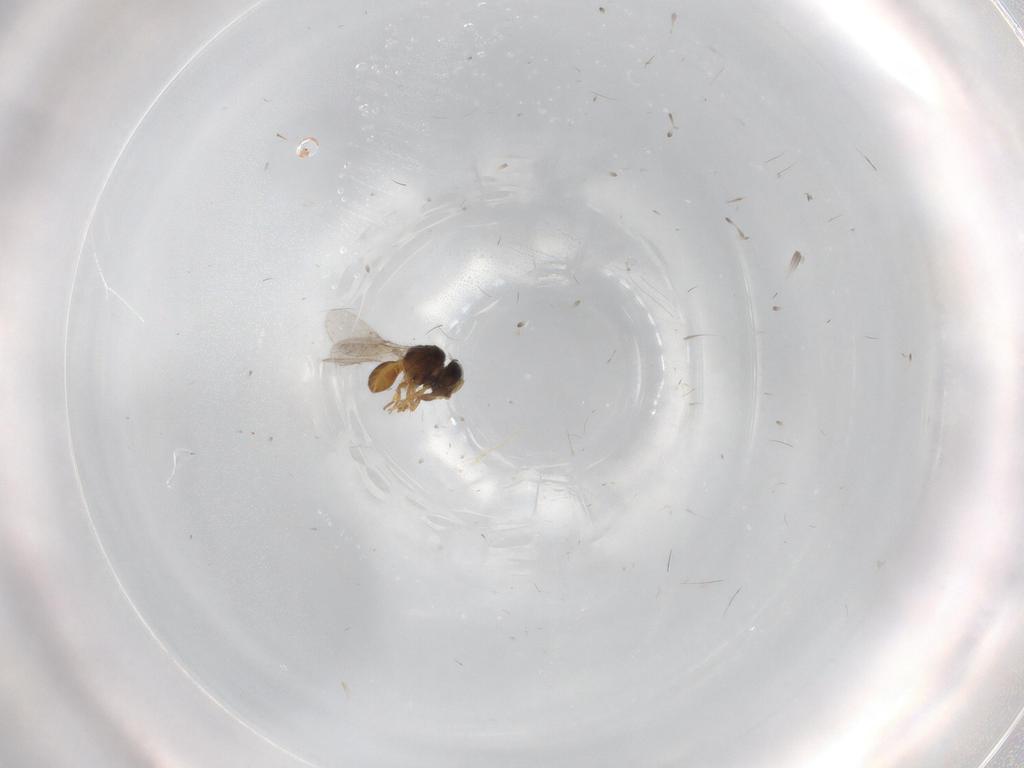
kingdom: Animalia
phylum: Arthropoda
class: Insecta
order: Hymenoptera
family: Scelionidae
